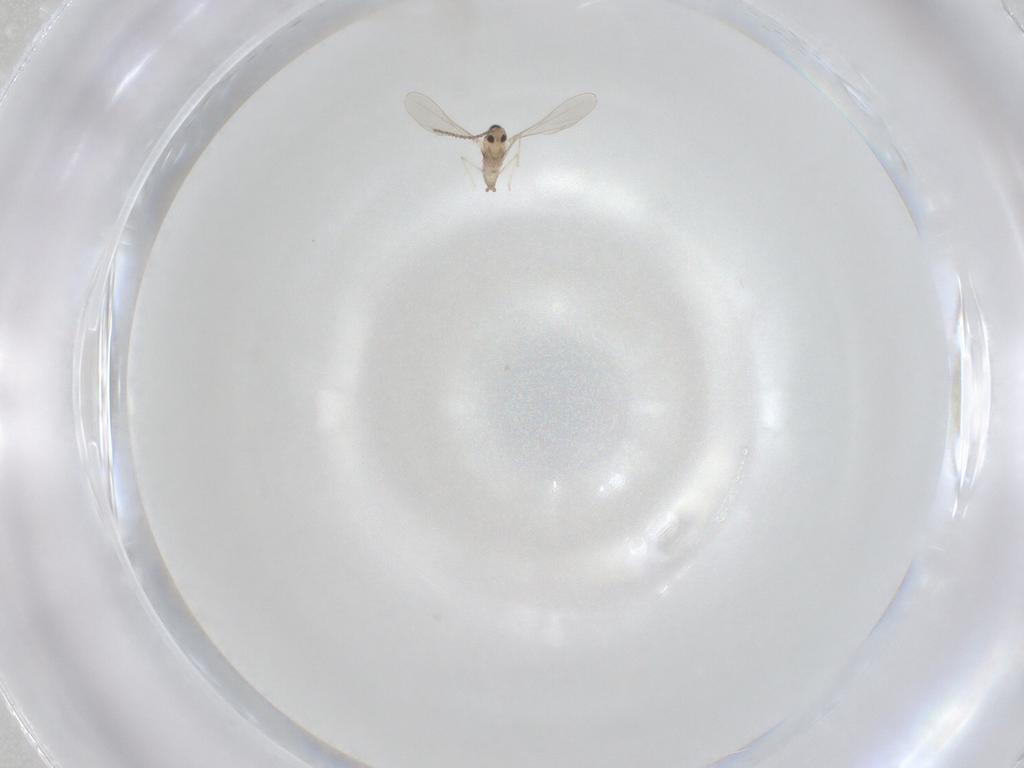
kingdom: Animalia
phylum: Arthropoda
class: Insecta
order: Diptera
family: Cecidomyiidae
